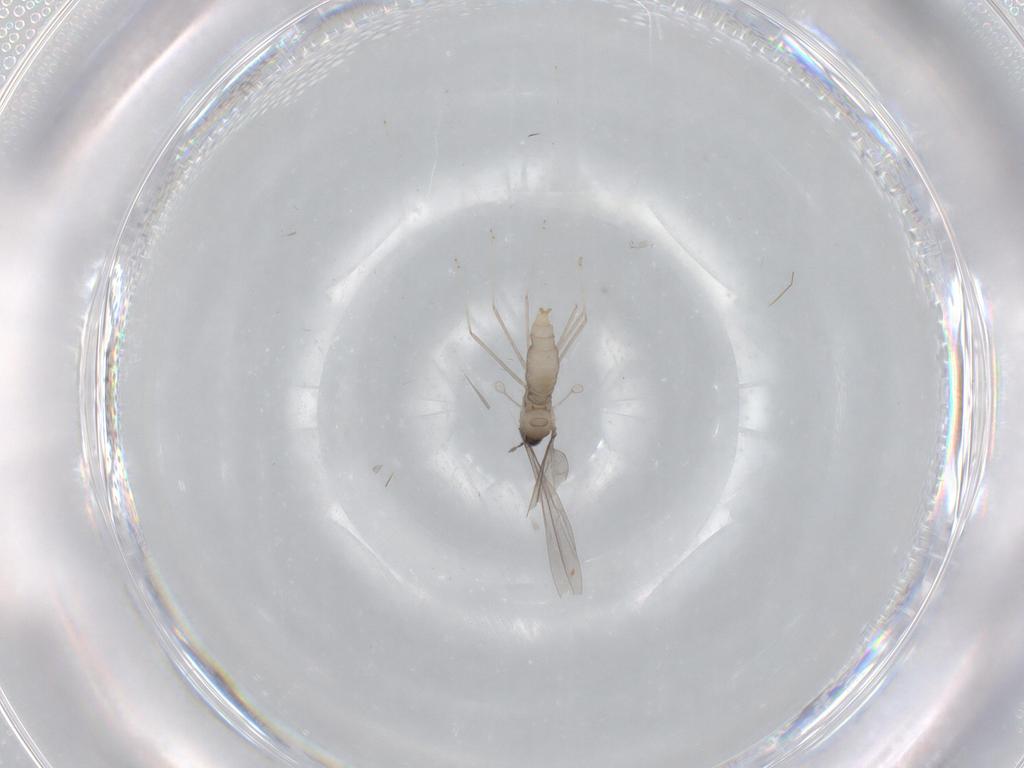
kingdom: Animalia
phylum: Arthropoda
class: Insecta
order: Diptera
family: Cecidomyiidae
